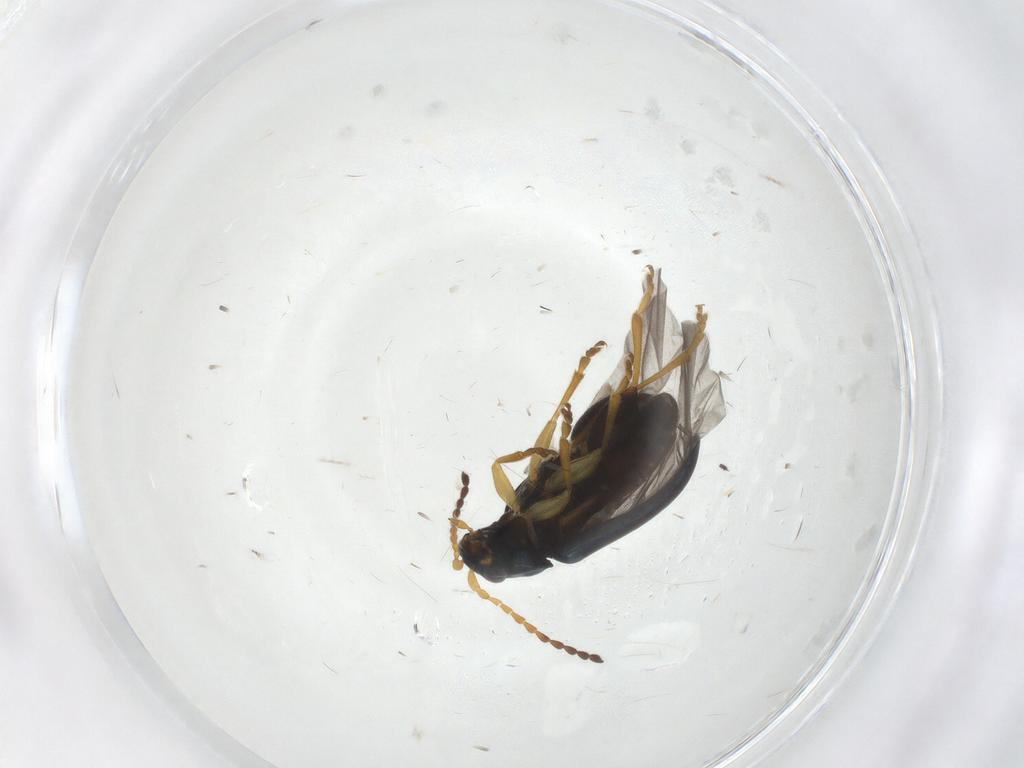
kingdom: Animalia
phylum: Arthropoda
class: Insecta
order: Coleoptera
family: Chrysomelidae
